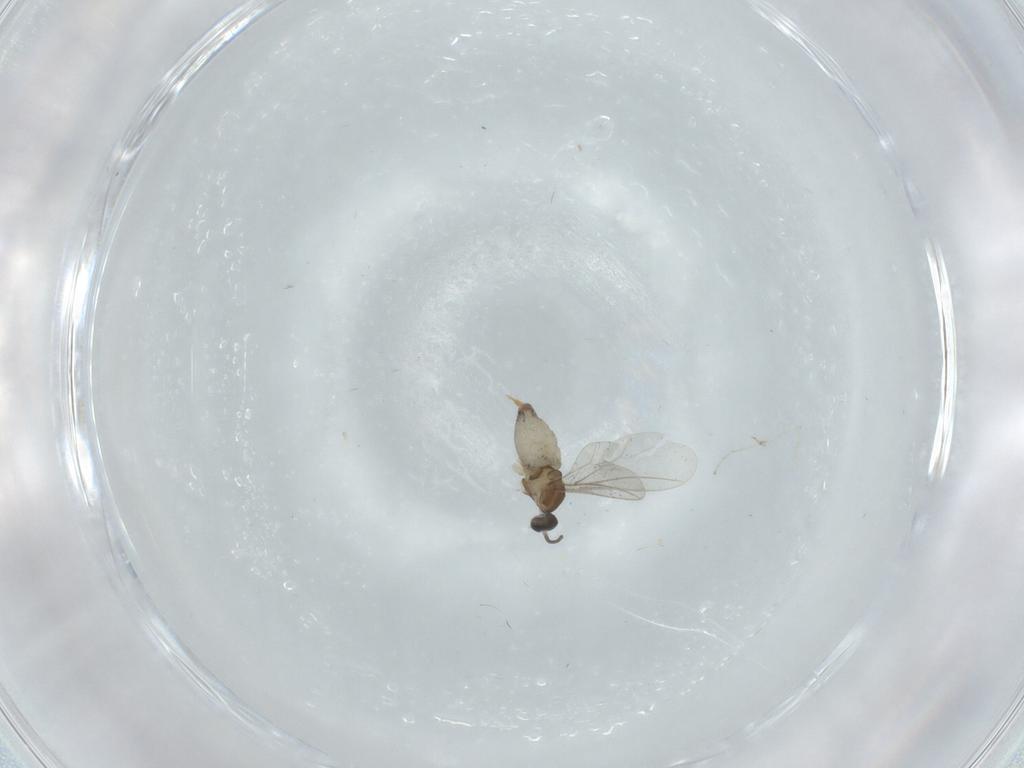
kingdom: Animalia
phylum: Arthropoda
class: Insecta
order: Diptera
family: Cecidomyiidae
